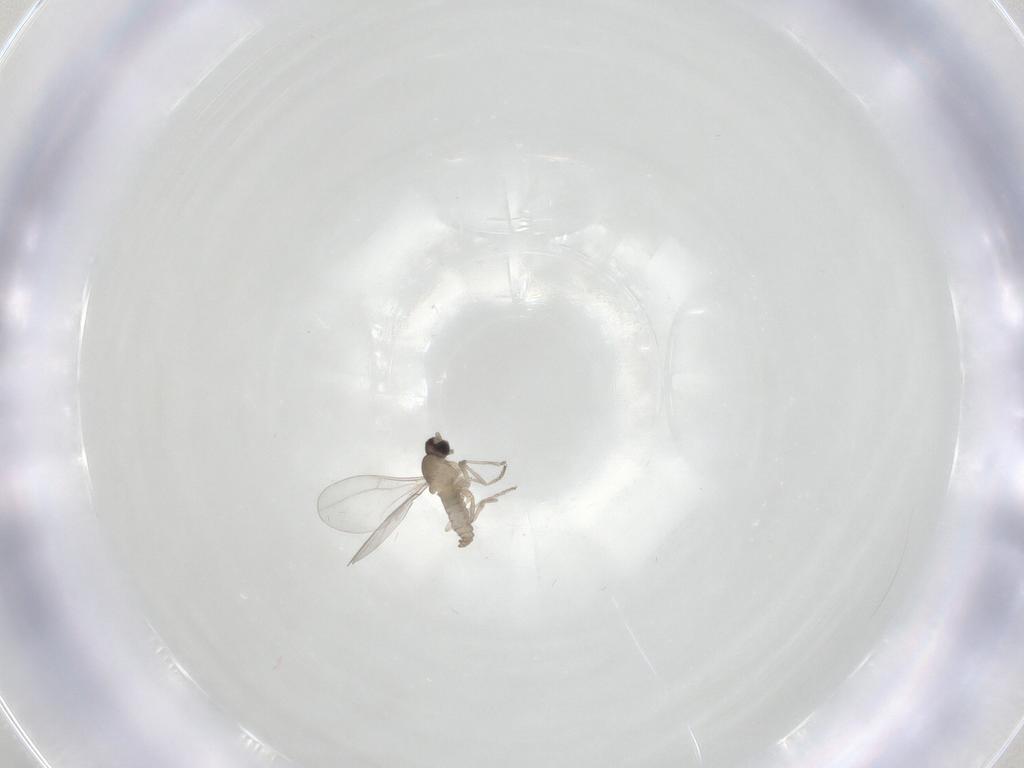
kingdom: Animalia
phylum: Arthropoda
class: Insecta
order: Diptera
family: Cecidomyiidae
